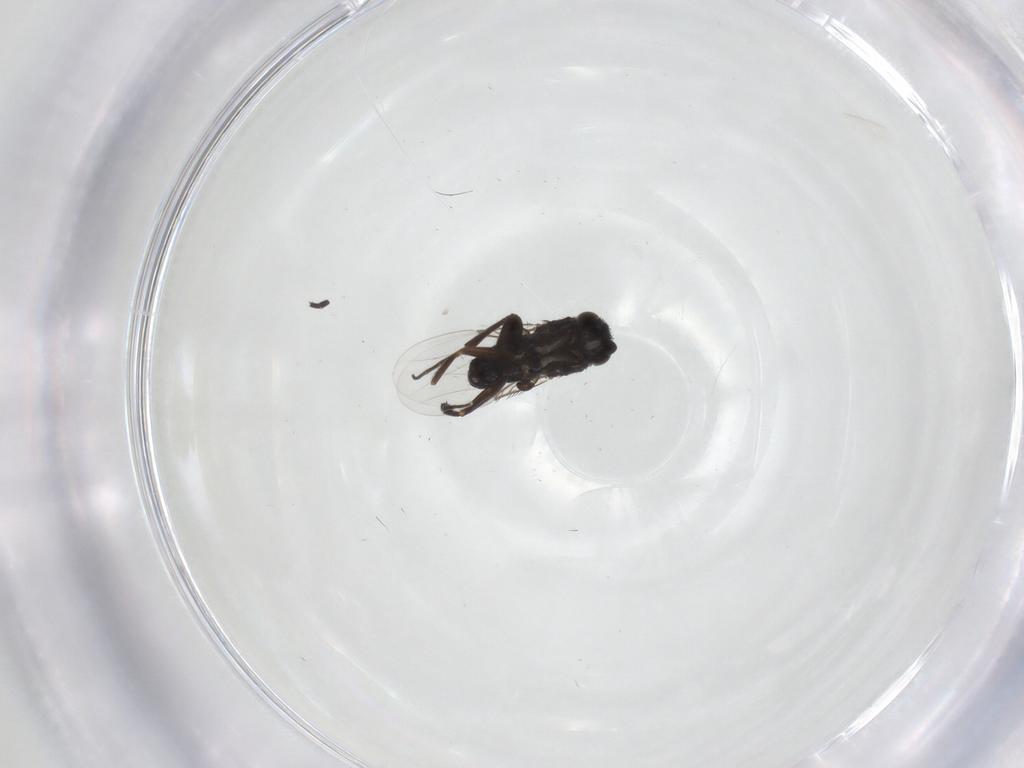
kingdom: Animalia
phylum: Arthropoda
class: Insecta
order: Diptera
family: Phoridae
